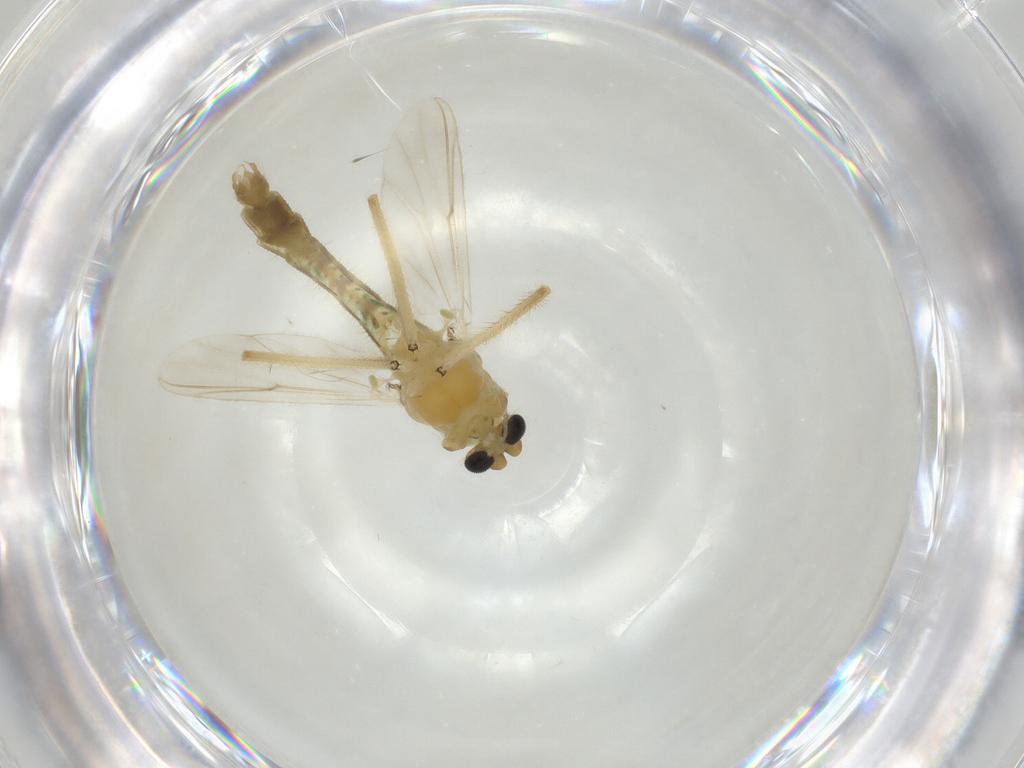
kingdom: Animalia
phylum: Arthropoda
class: Insecta
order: Diptera
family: Chironomidae
